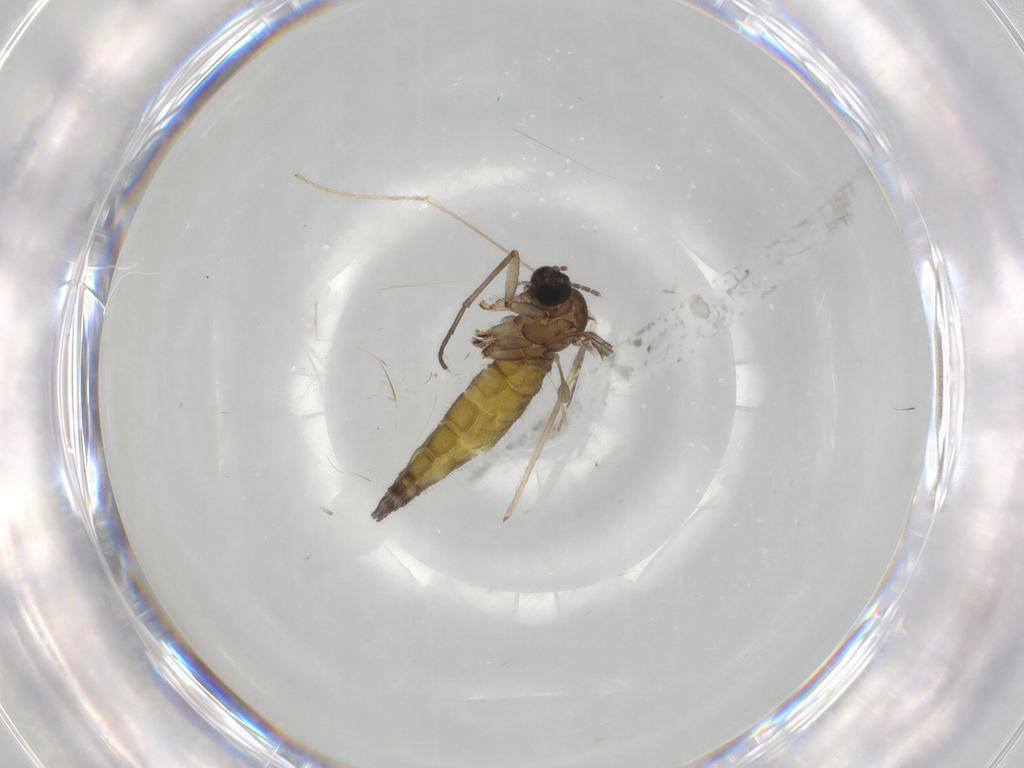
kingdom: Animalia
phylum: Arthropoda
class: Insecta
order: Diptera
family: Sciaridae
